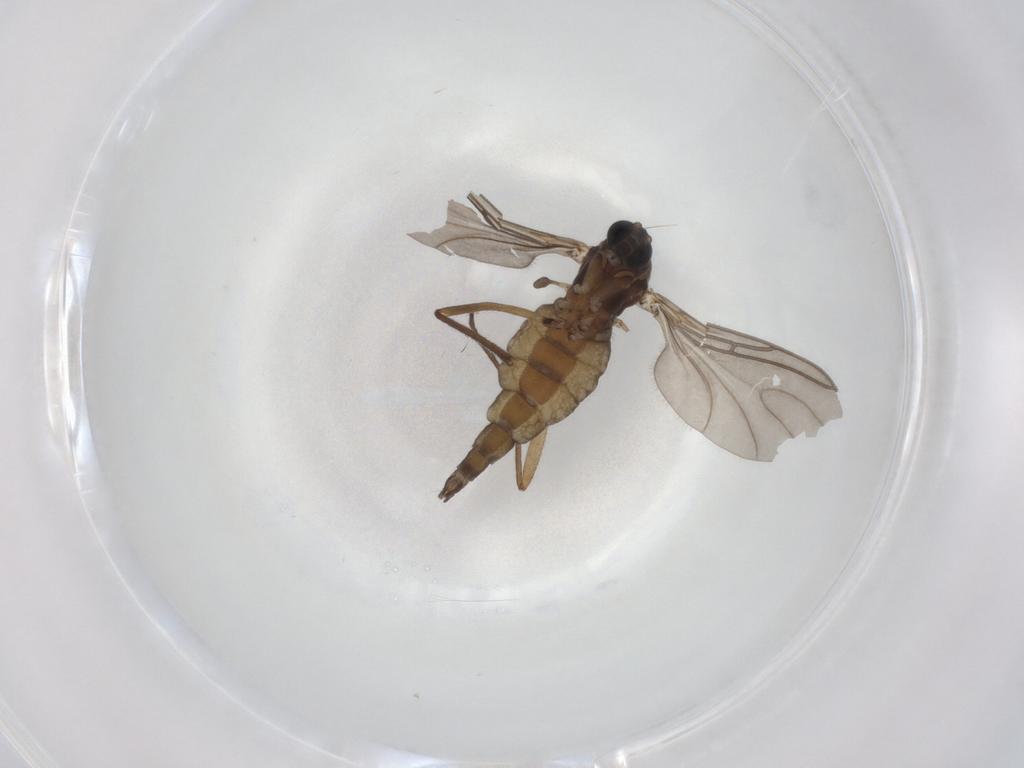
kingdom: Animalia
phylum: Arthropoda
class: Insecta
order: Diptera
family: Sciaridae
